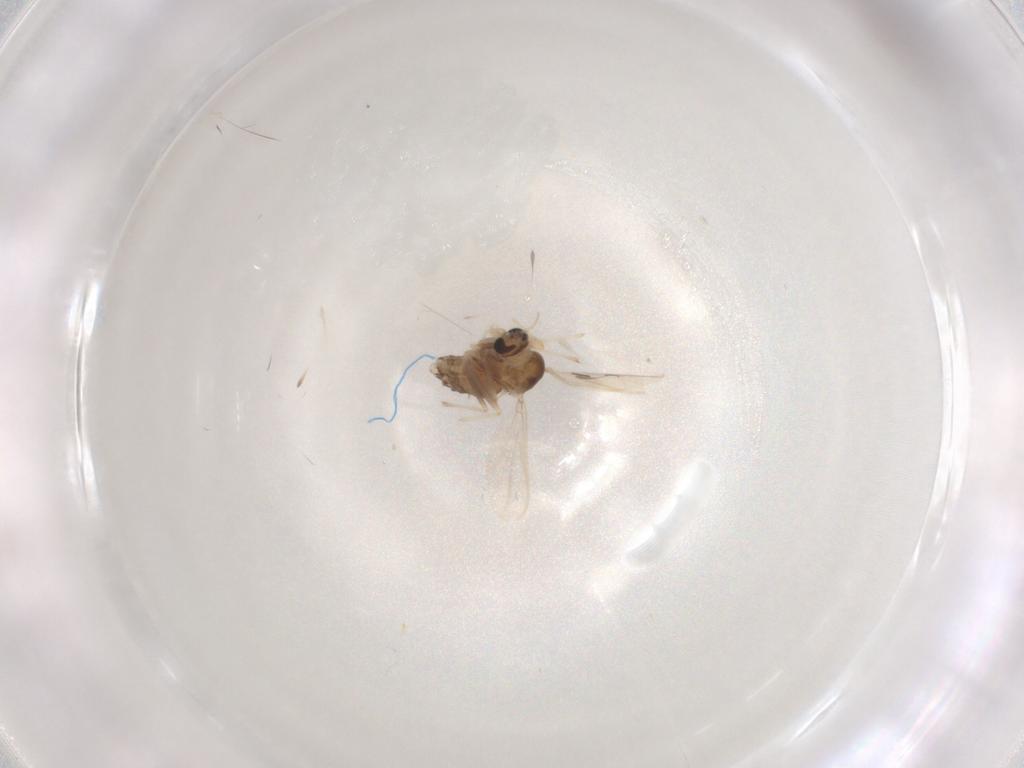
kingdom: Animalia
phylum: Arthropoda
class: Insecta
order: Diptera
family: Chironomidae
